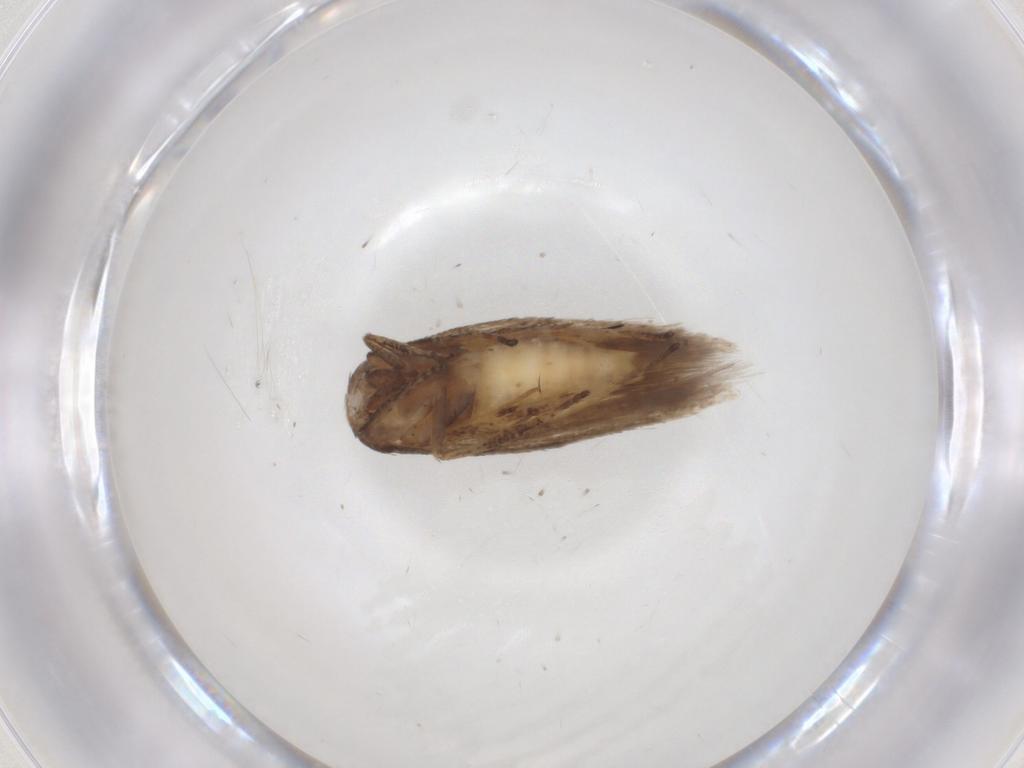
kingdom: Animalia
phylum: Arthropoda
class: Insecta
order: Lepidoptera
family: Gelechiidae
